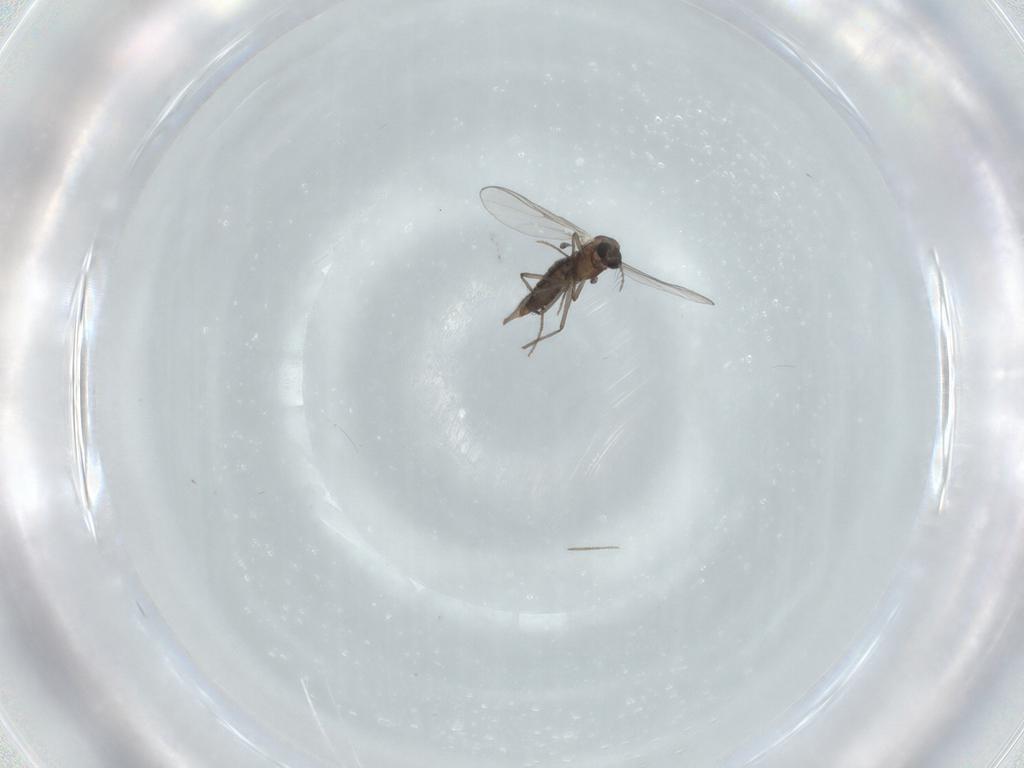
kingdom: Animalia
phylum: Arthropoda
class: Insecta
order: Diptera
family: Chironomidae
